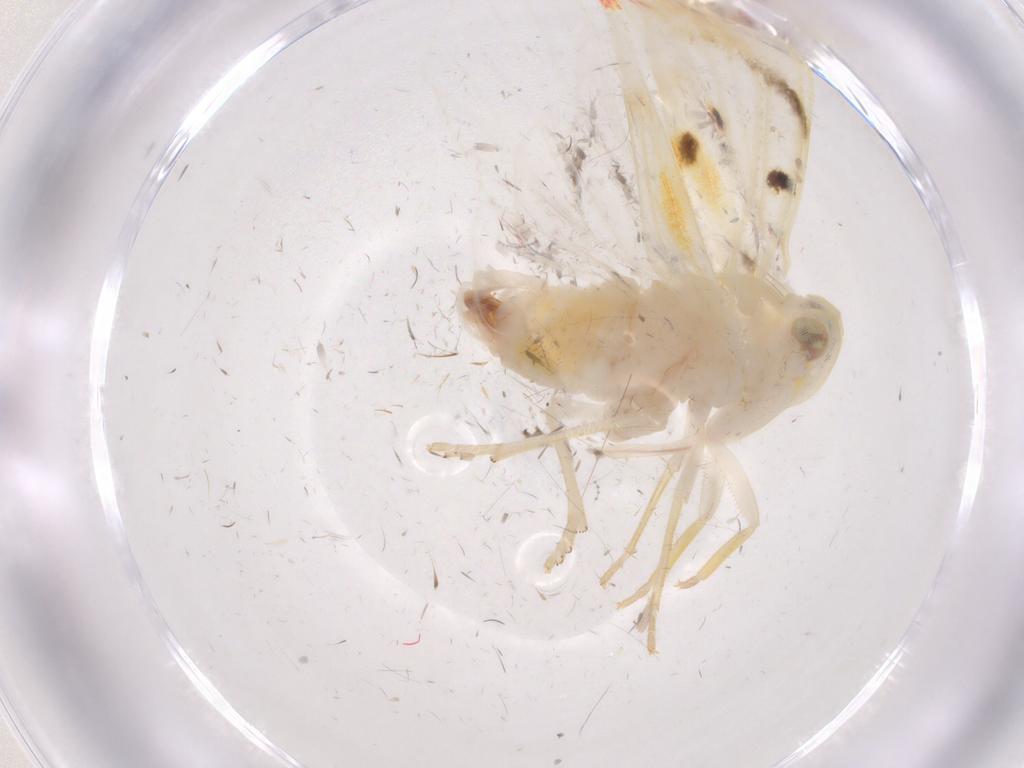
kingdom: Animalia
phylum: Arthropoda
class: Insecta
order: Hemiptera
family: Derbidae
